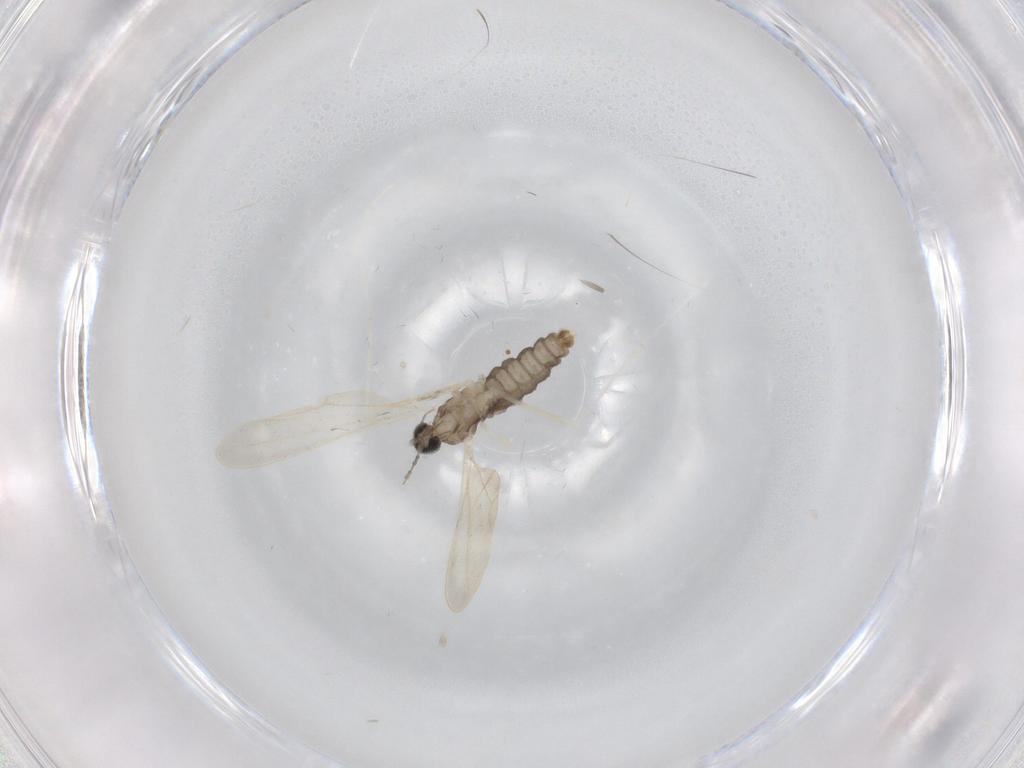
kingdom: Animalia
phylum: Arthropoda
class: Insecta
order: Diptera
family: Cecidomyiidae
